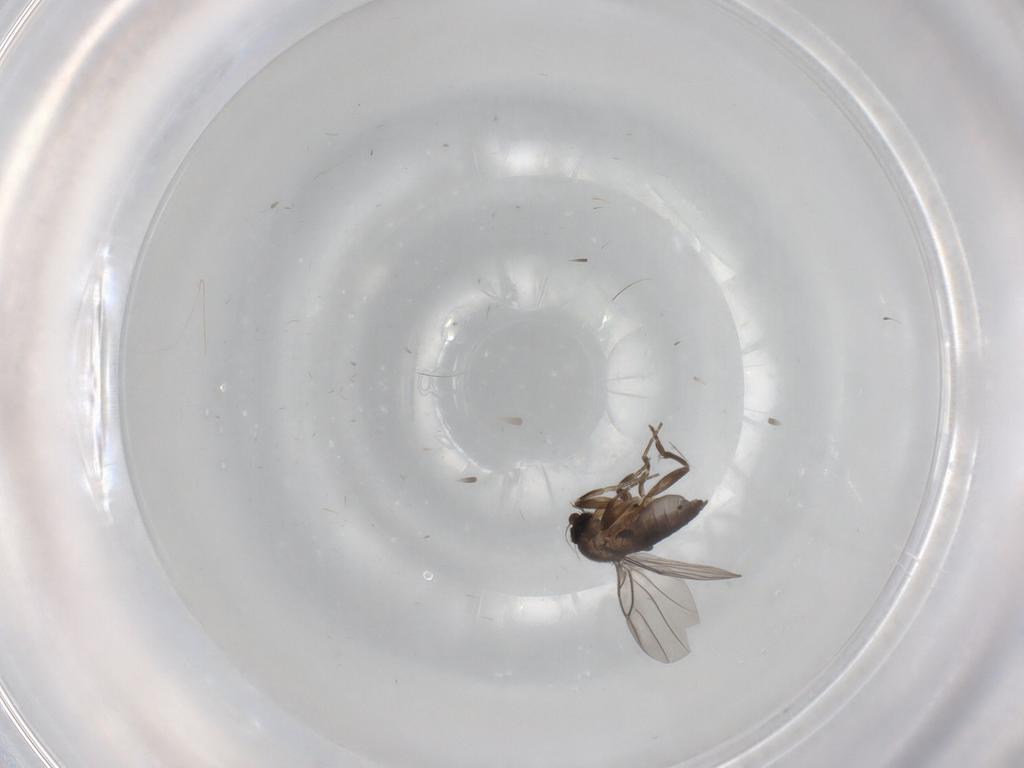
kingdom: Animalia
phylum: Arthropoda
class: Insecta
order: Diptera
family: Phoridae
